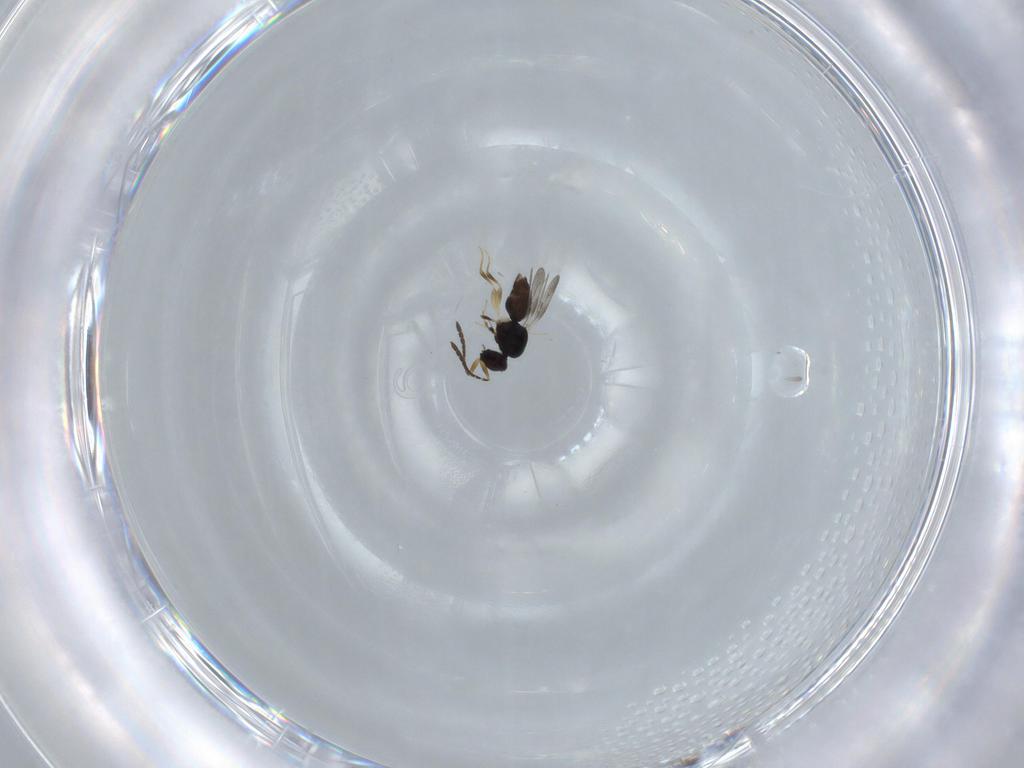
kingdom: Animalia
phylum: Arthropoda
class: Insecta
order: Hymenoptera
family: Ceraphronidae
